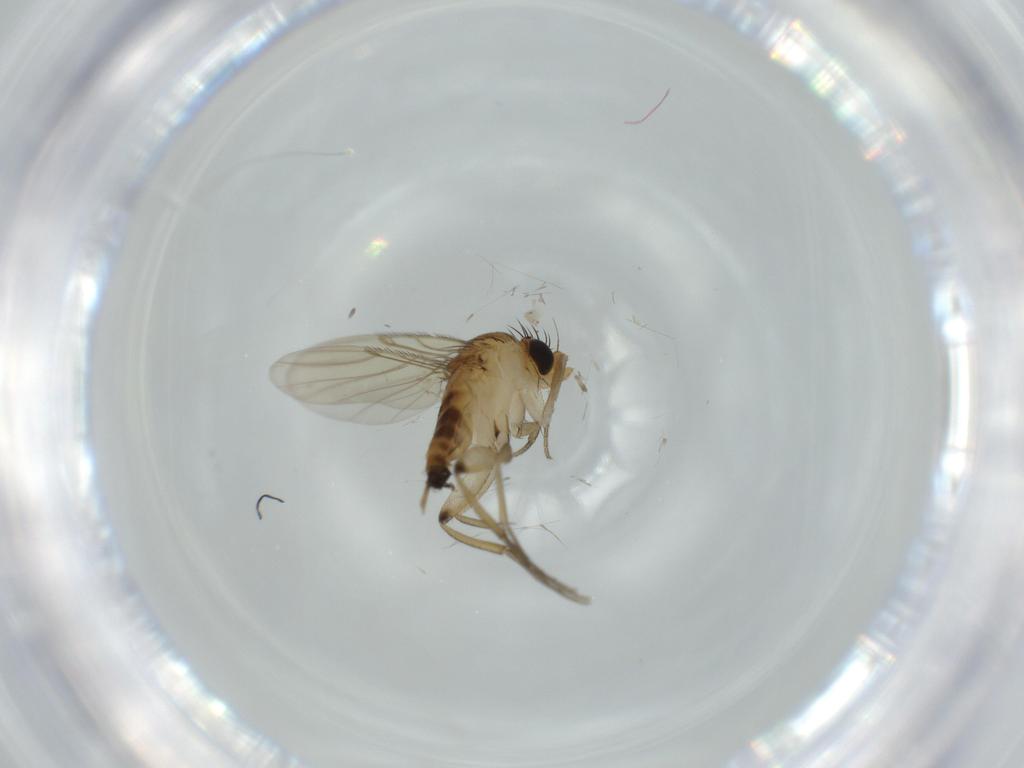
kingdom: Animalia
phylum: Arthropoda
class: Insecta
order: Diptera
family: Phoridae
